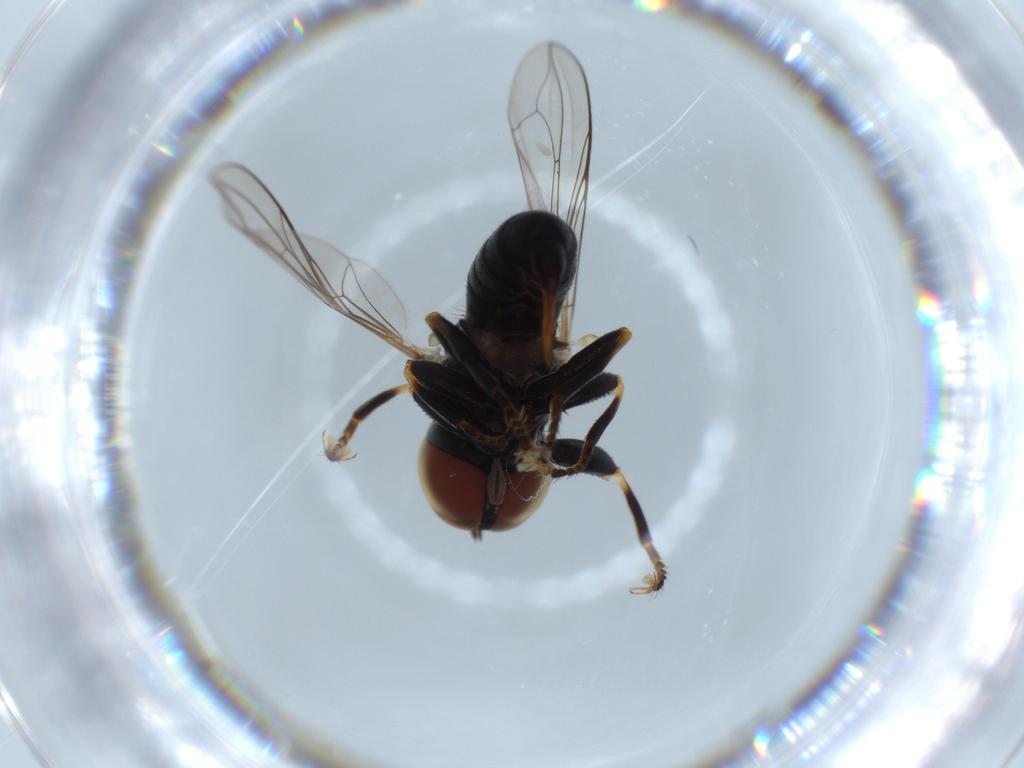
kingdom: Animalia
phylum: Arthropoda
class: Insecta
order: Diptera
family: Pipunculidae
